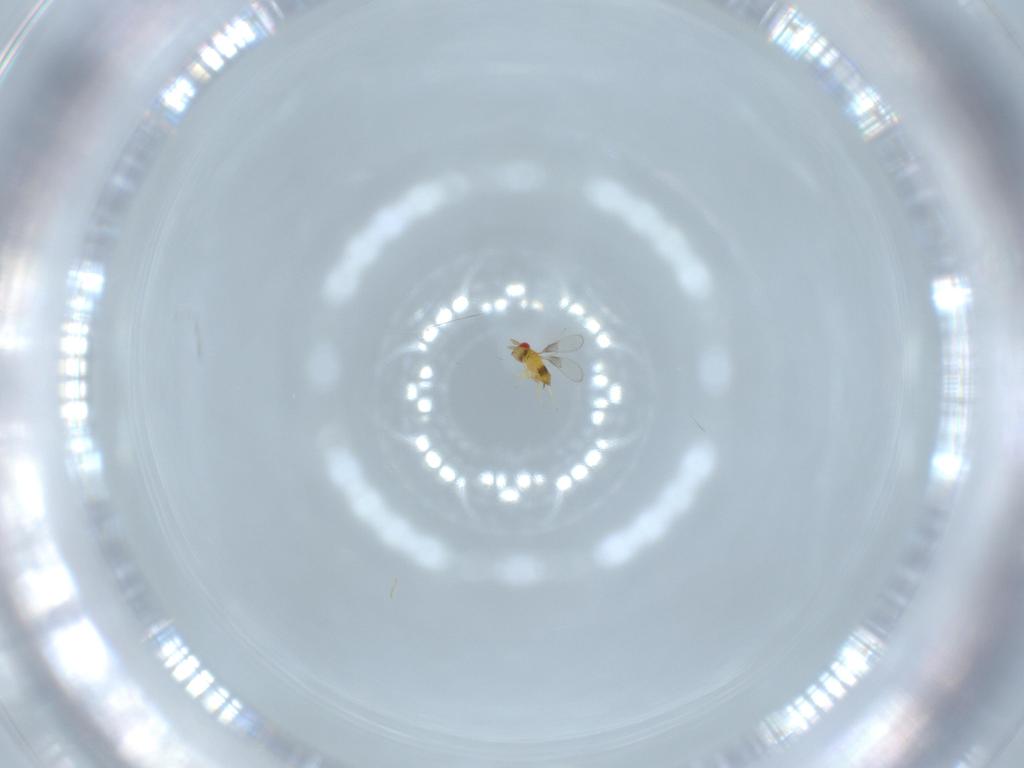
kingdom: Animalia
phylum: Arthropoda
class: Insecta
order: Hymenoptera
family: Trichogrammatidae
